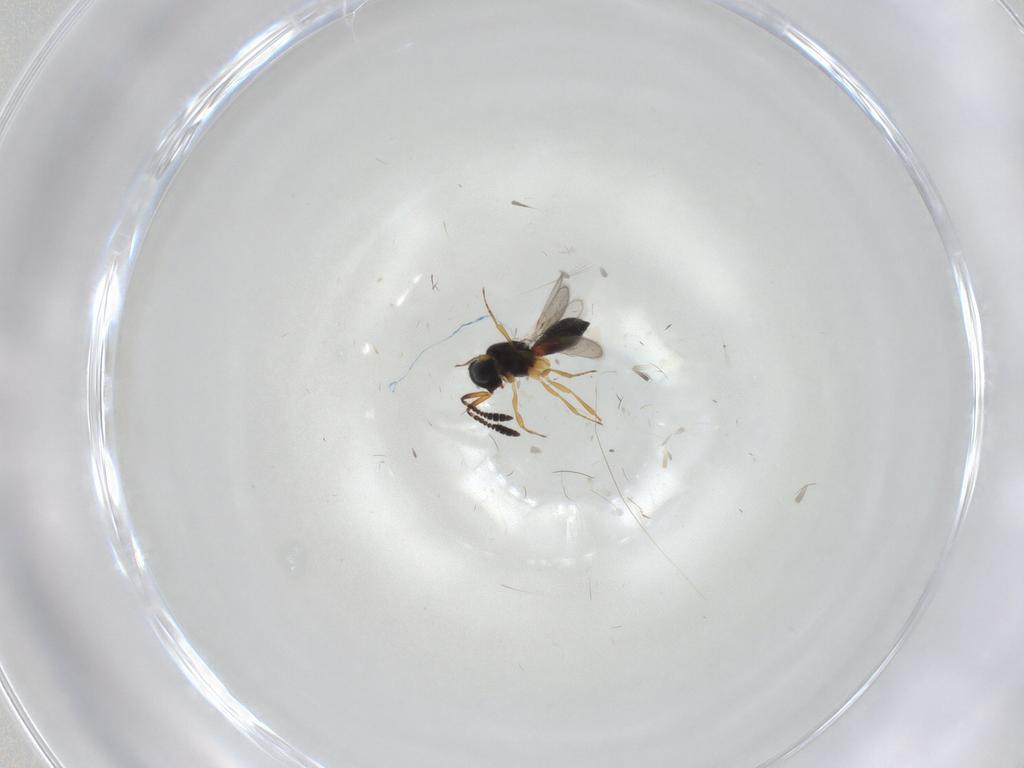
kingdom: Animalia
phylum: Arthropoda
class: Insecta
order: Hymenoptera
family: Scelionidae
